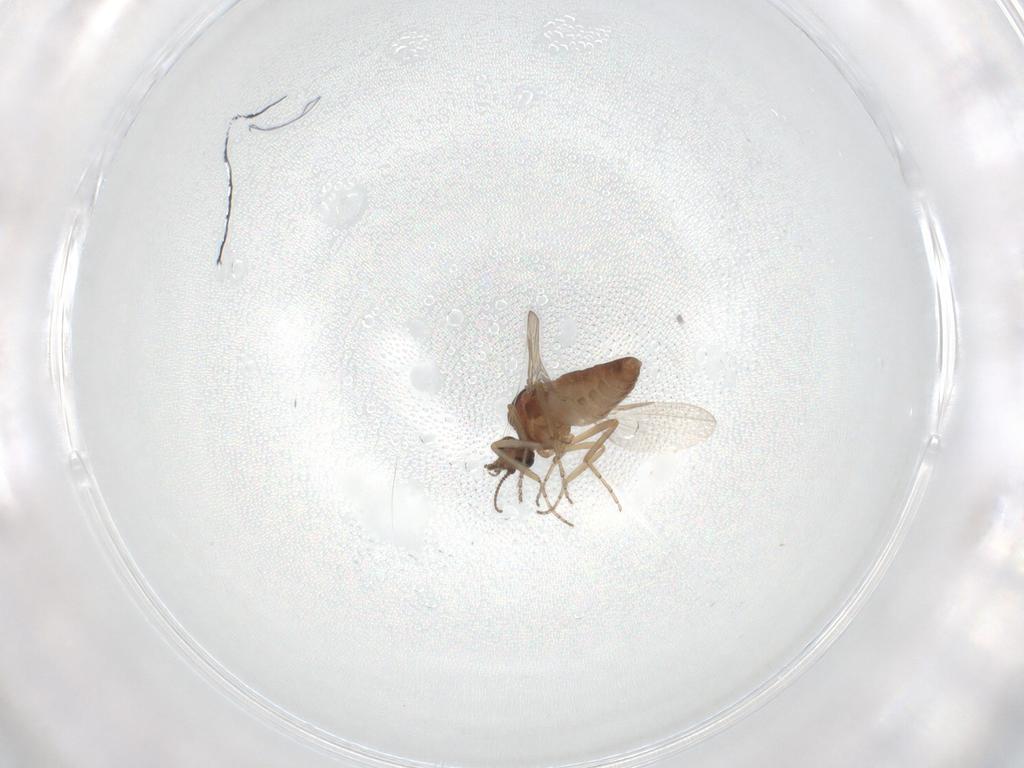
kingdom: Animalia
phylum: Arthropoda
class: Insecta
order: Diptera
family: Ceratopogonidae
